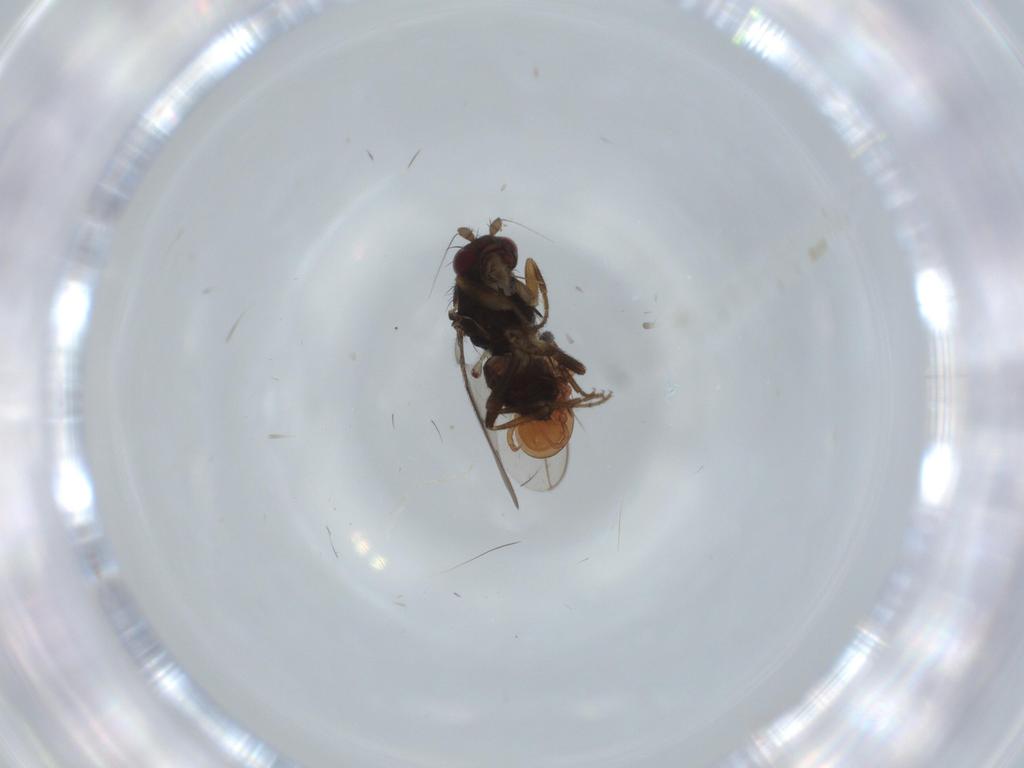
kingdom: Animalia
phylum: Arthropoda
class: Insecta
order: Diptera
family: Sphaeroceridae
